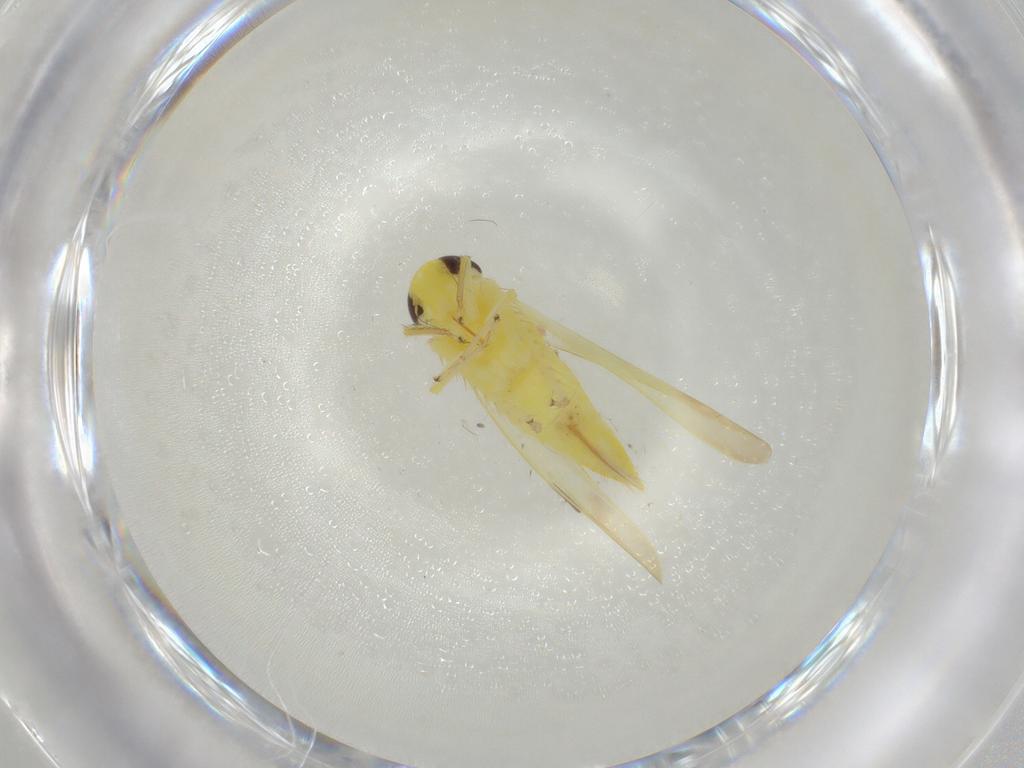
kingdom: Animalia
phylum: Arthropoda
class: Insecta
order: Hemiptera
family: Cicadellidae
